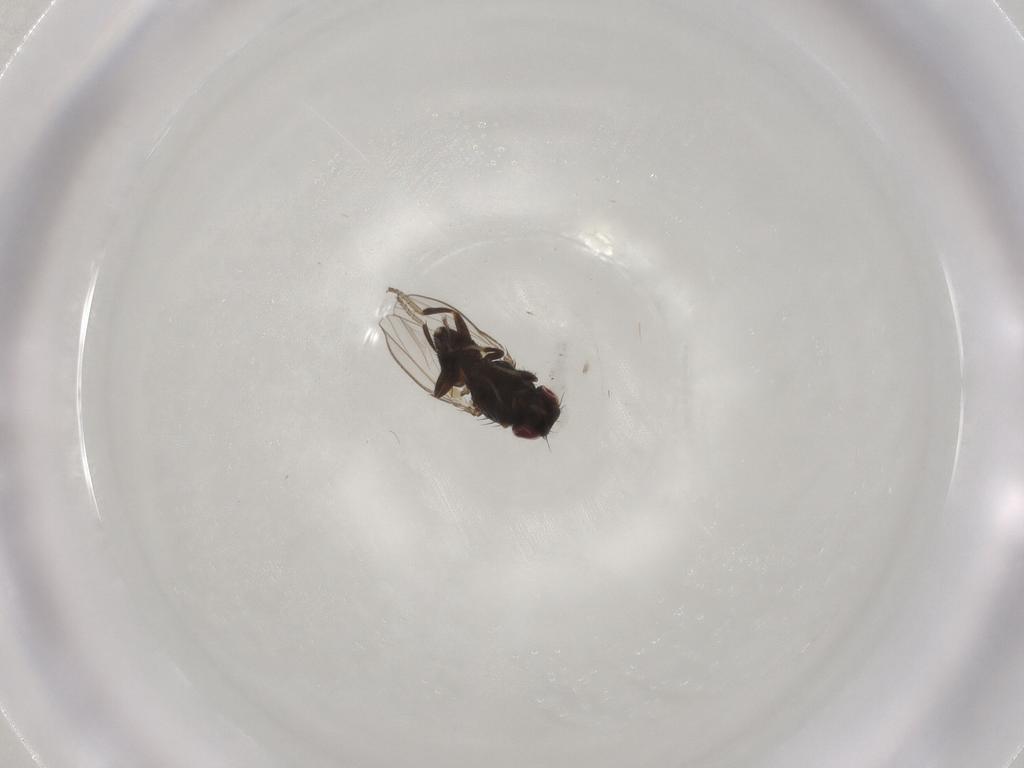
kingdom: Animalia
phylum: Arthropoda
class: Insecta
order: Diptera
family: Milichiidae
